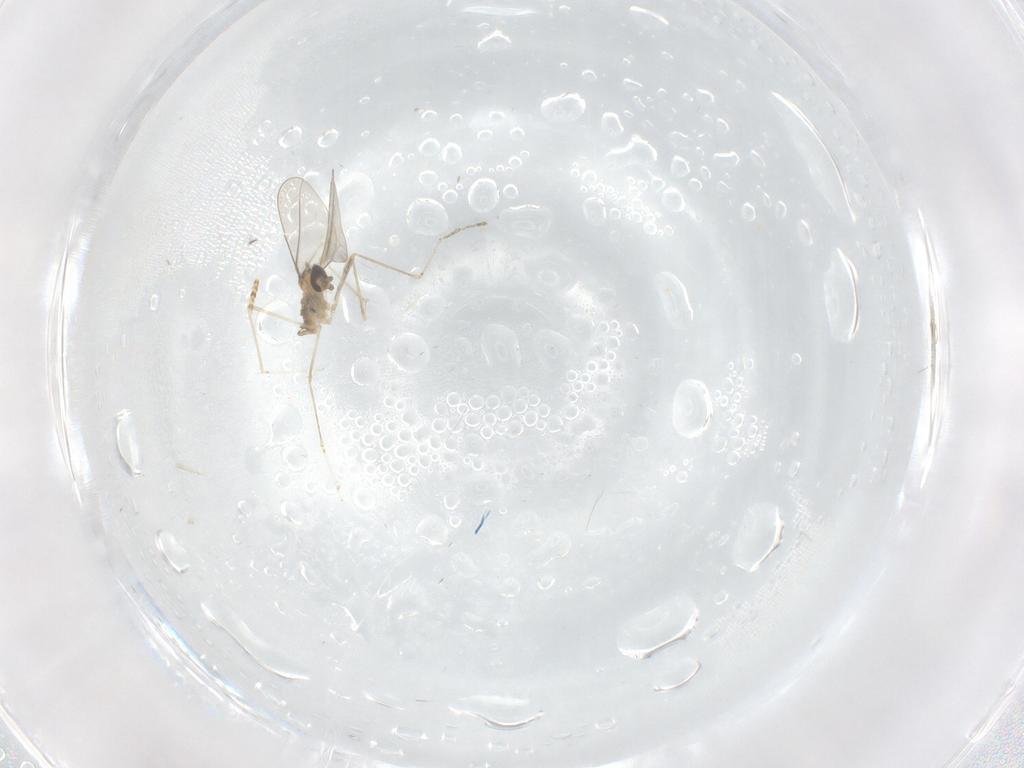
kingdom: Animalia
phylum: Arthropoda
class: Insecta
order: Diptera
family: Cecidomyiidae
